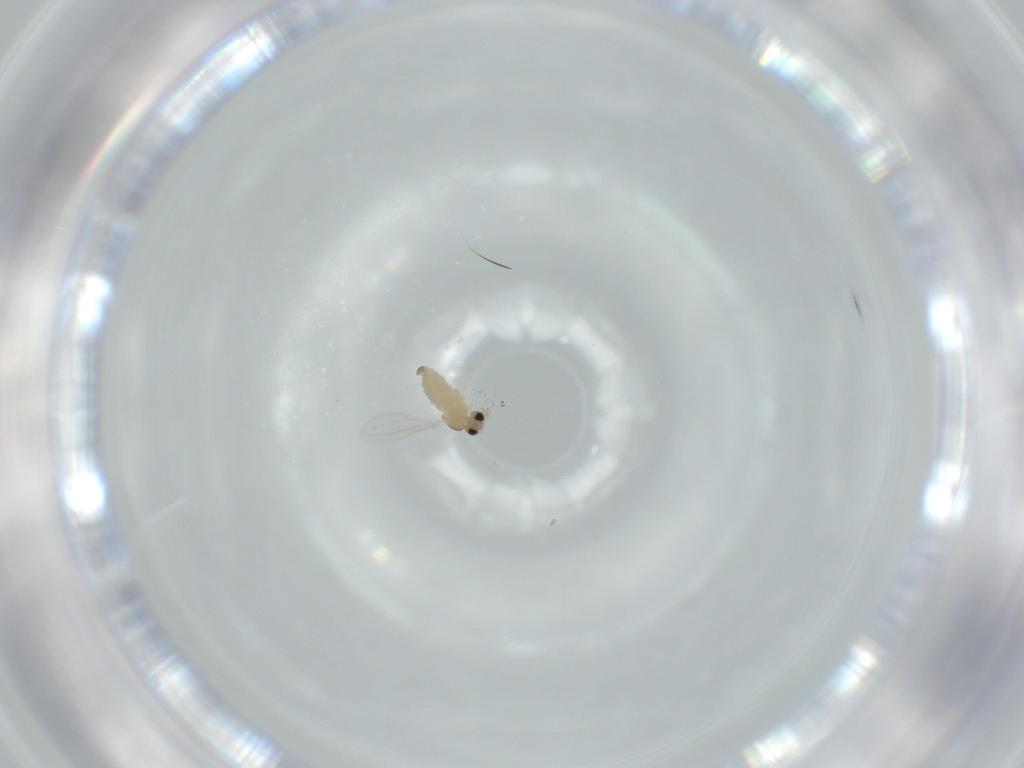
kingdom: Animalia
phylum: Arthropoda
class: Insecta
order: Diptera
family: Cecidomyiidae
